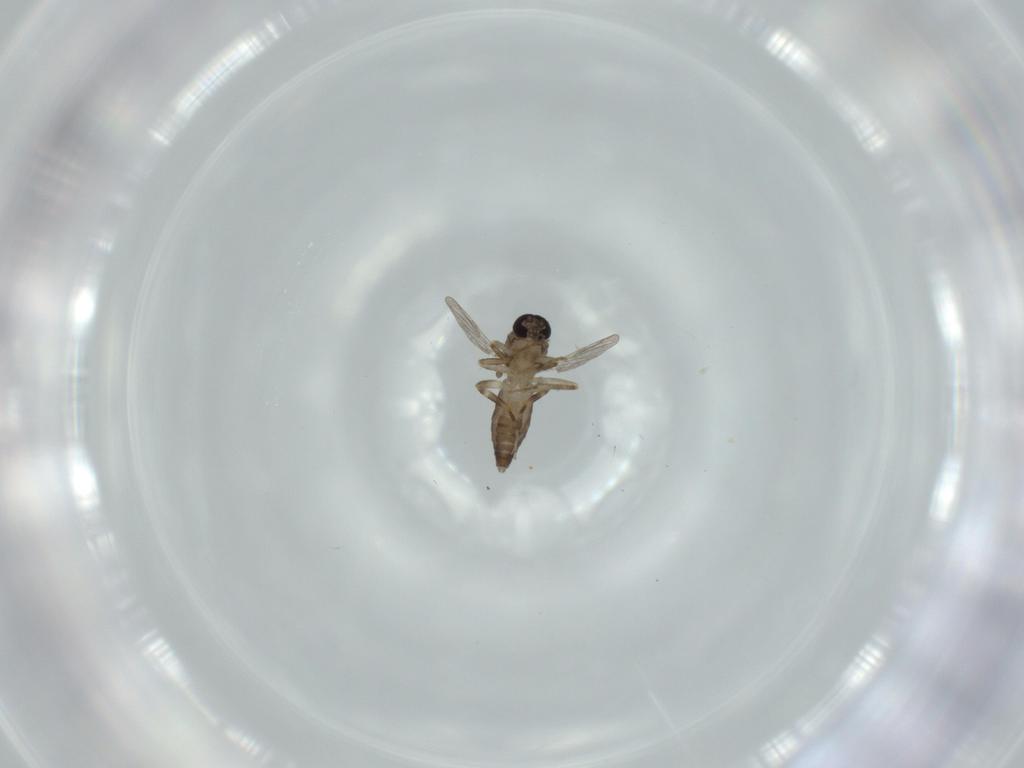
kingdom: Animalia
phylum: Arthropoda
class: Insecta
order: Diptera
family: Ceratopogonidae
